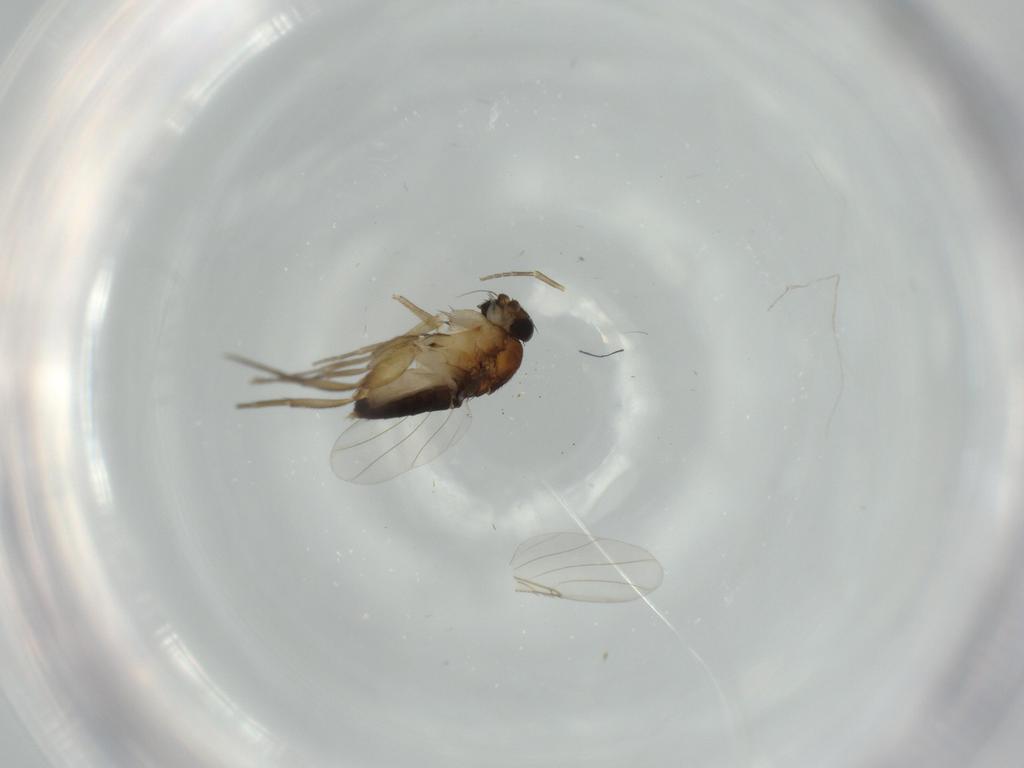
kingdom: Animalia
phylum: Arthropoda
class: Insecta
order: Diptera
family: Phoridae
